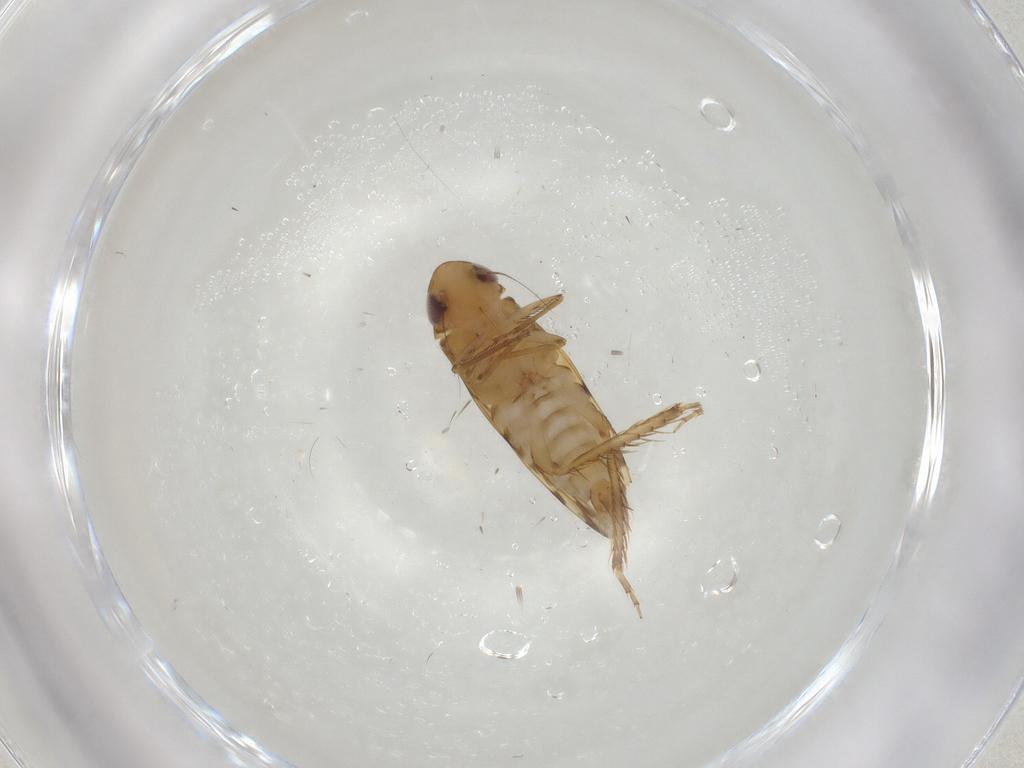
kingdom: Animalia
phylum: Arthropoda
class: Insecta
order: Hemiptera
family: Cicadellidae
